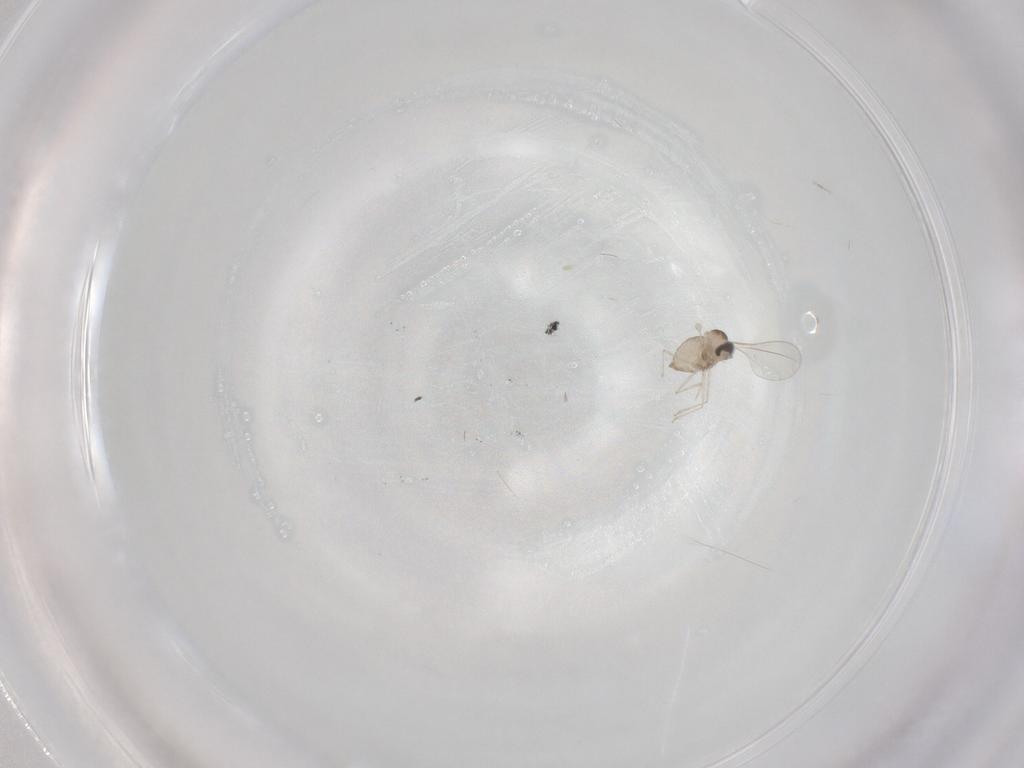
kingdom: Animalia
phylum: Arthropoda
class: Insecta
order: Diptera
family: Cecidomyiidae
